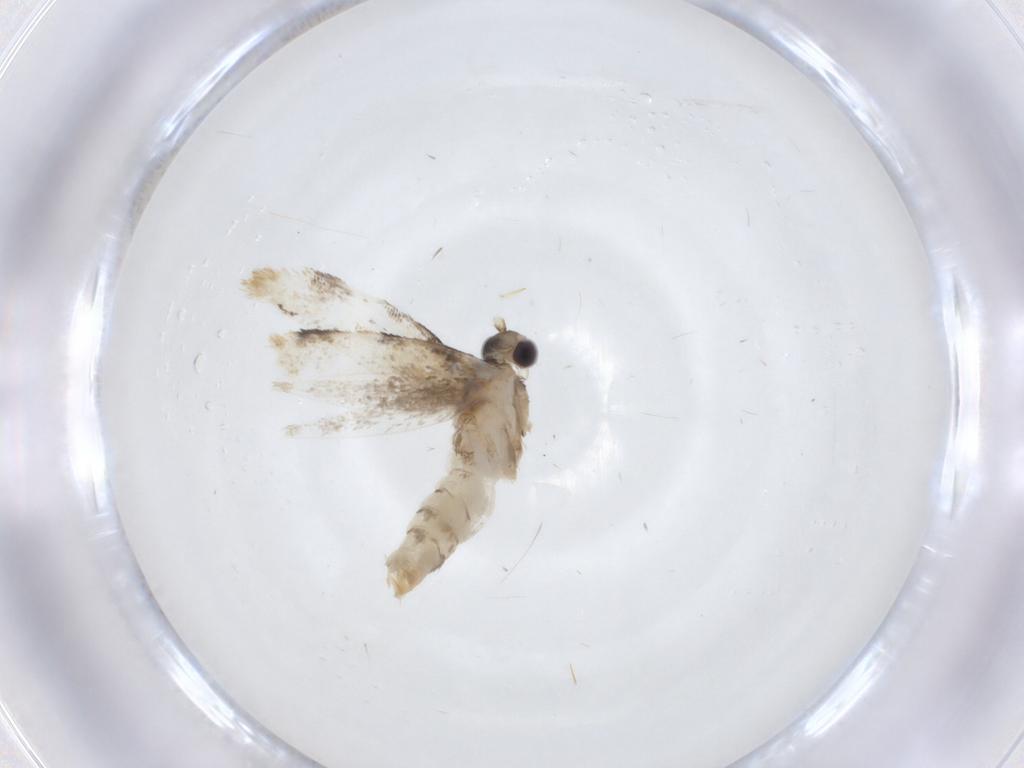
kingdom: Animalia
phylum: Arthropoda
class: Insecta
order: Lepidoptera
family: Dryadaulidae
